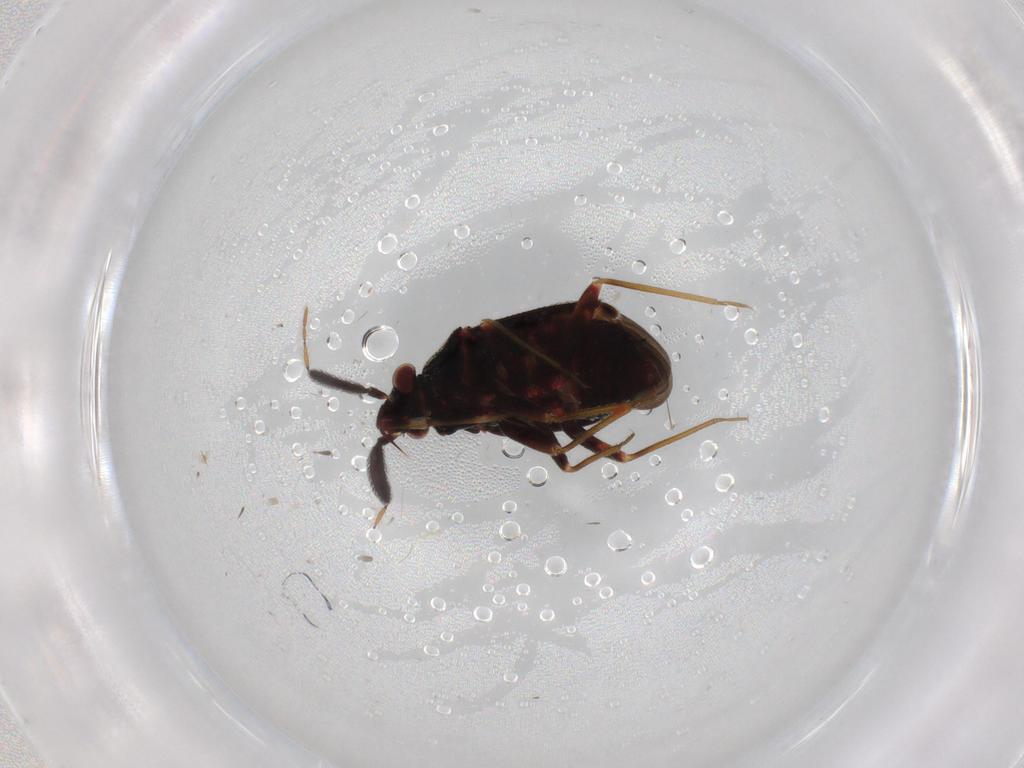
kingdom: Animalia
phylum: Arthropoda
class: Insecta
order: Hemiptera
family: Miridae
